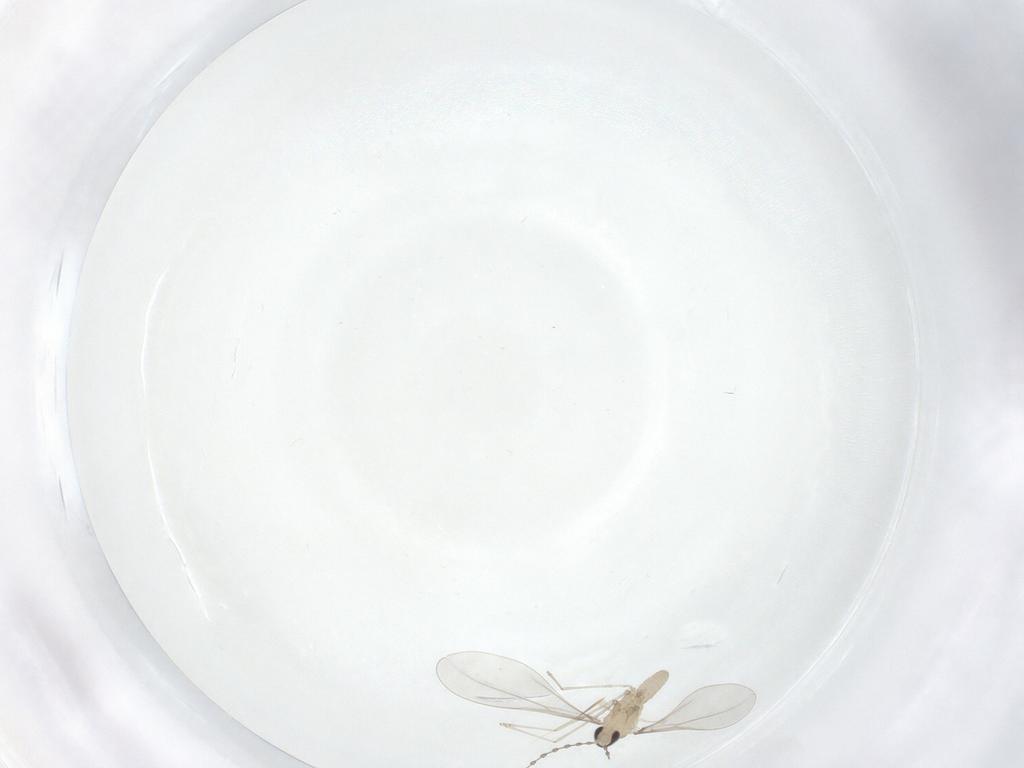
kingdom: Animalia
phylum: Arthropoda
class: Insecta
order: Diptera
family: Cecidomyiidae
